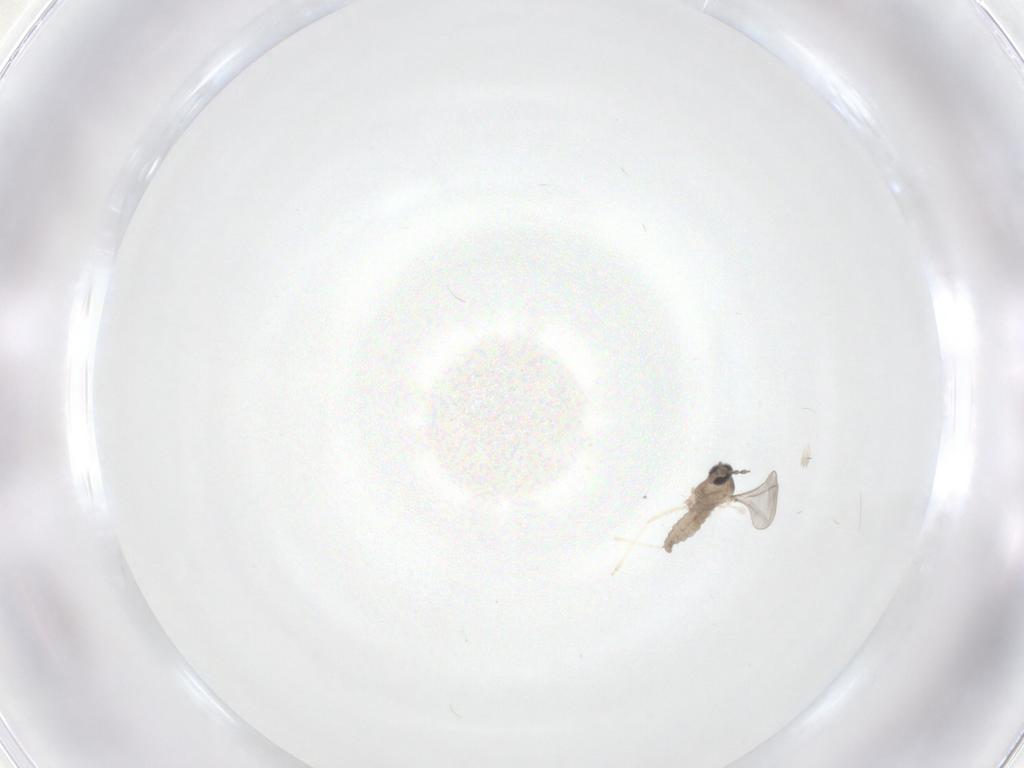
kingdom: Animalia
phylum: Arthropoda
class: Insecta
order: Diptera
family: Cecidomyiidae
